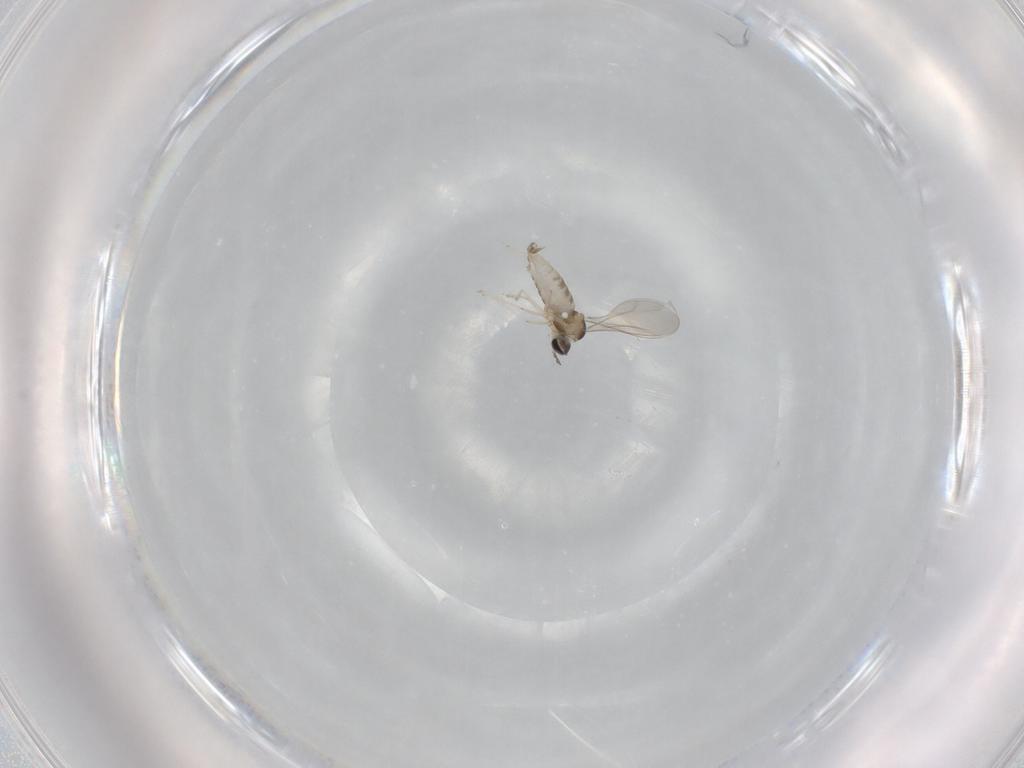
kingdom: Animalia
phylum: Arthropoda
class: Insecta
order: Diptera
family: Cecidomyiidae
